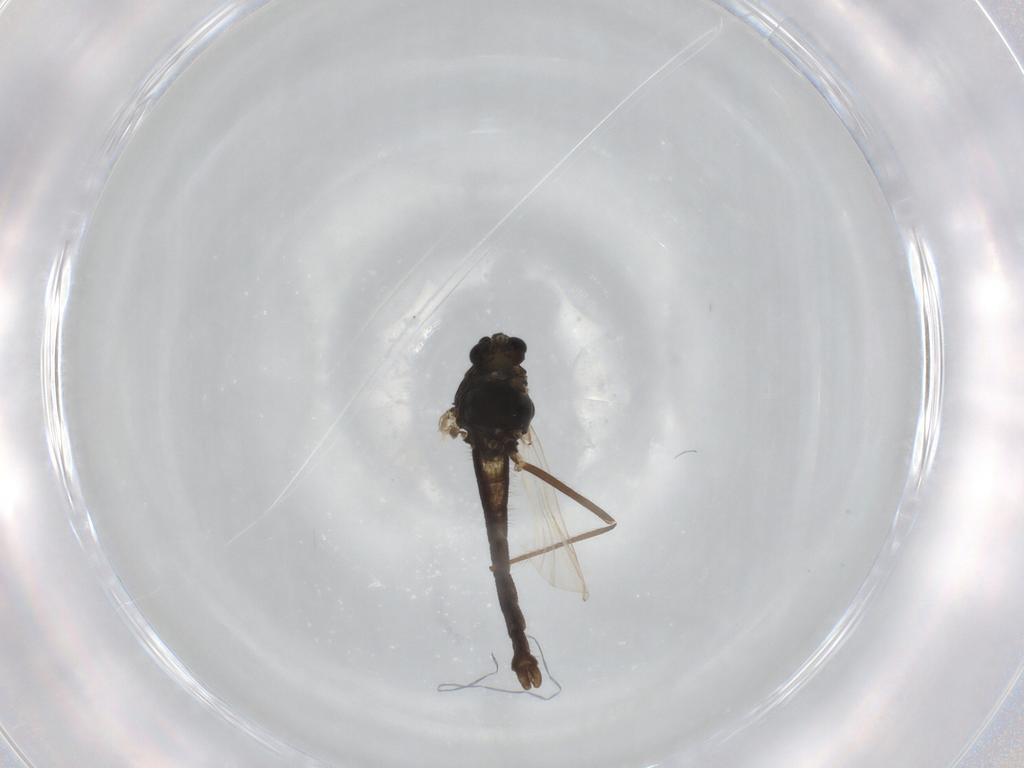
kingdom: Animalia
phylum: Arthropoda
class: Insecta
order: Diptera
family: Chironomidae
